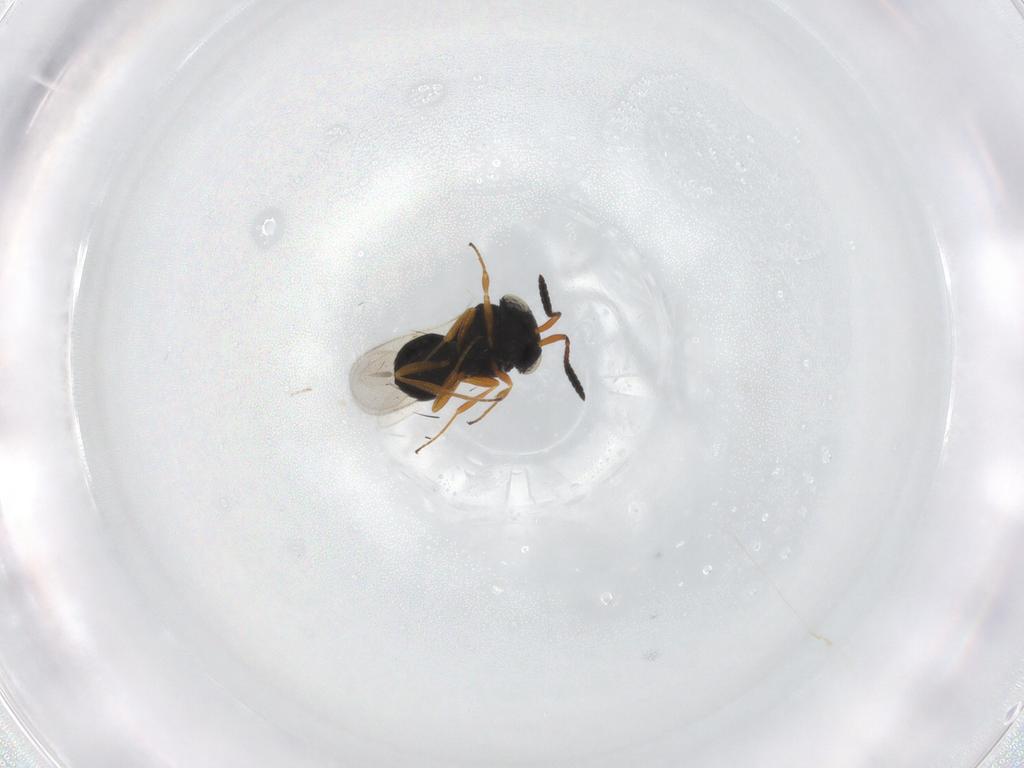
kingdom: Animalia
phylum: Arthropoda
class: Insecta
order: Hymenoptera
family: Scelionidae
